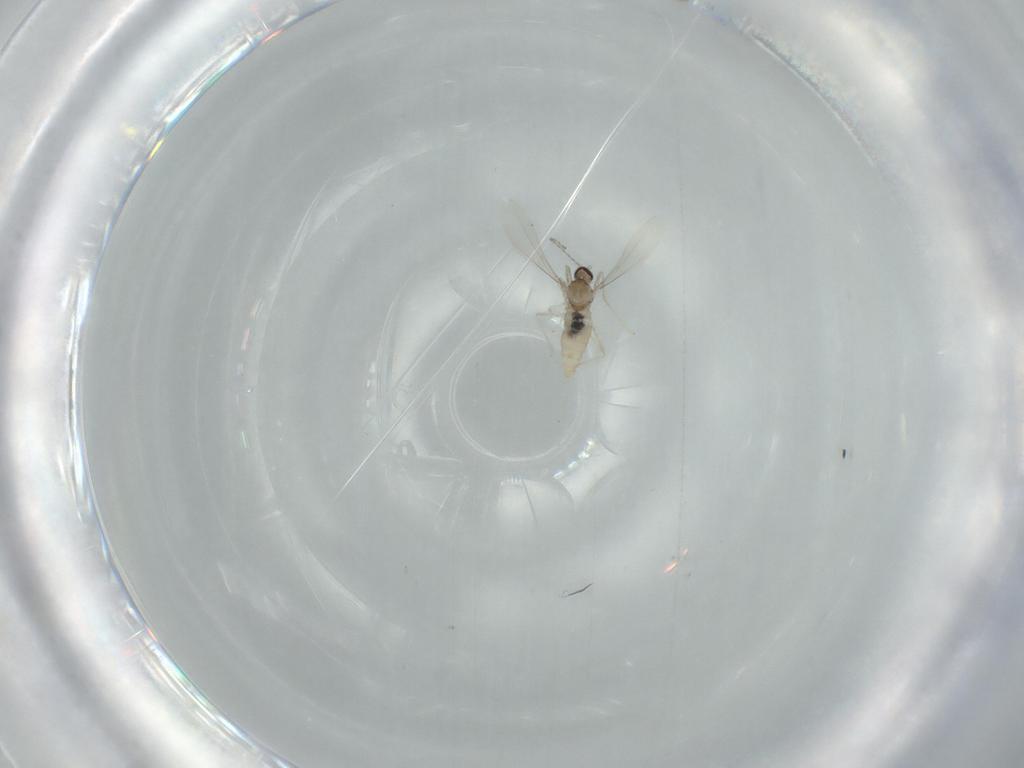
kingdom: Animalia
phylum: Arthropoda
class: Insecta
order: Diptera
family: Cecidomyiidae
